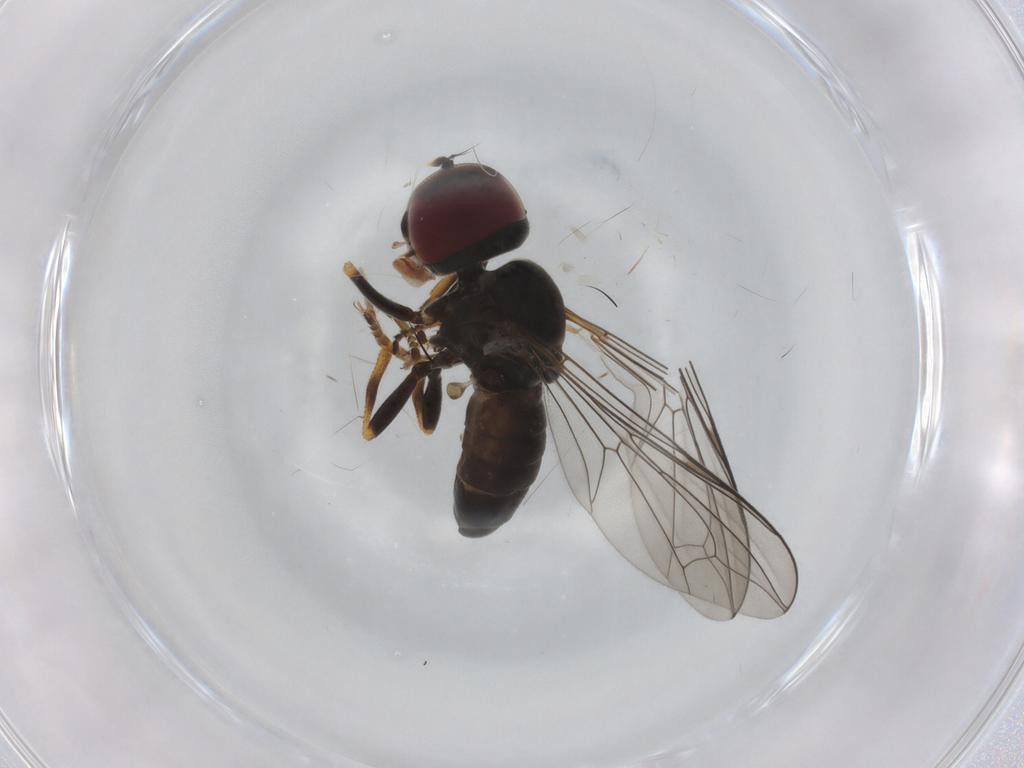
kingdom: Animalia
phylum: Arthropoda
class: Insecta
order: Diptera
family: Pipunculidae
